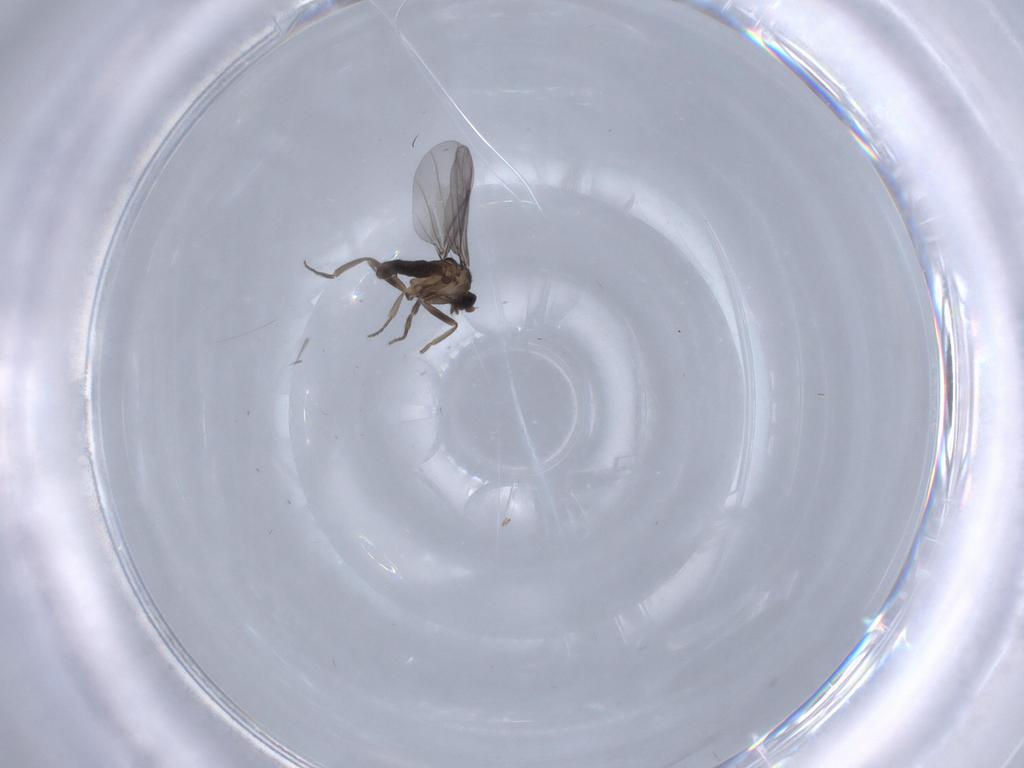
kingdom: Animalia
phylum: Arthropoda
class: Insecta
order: Diptera
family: Phoridae
